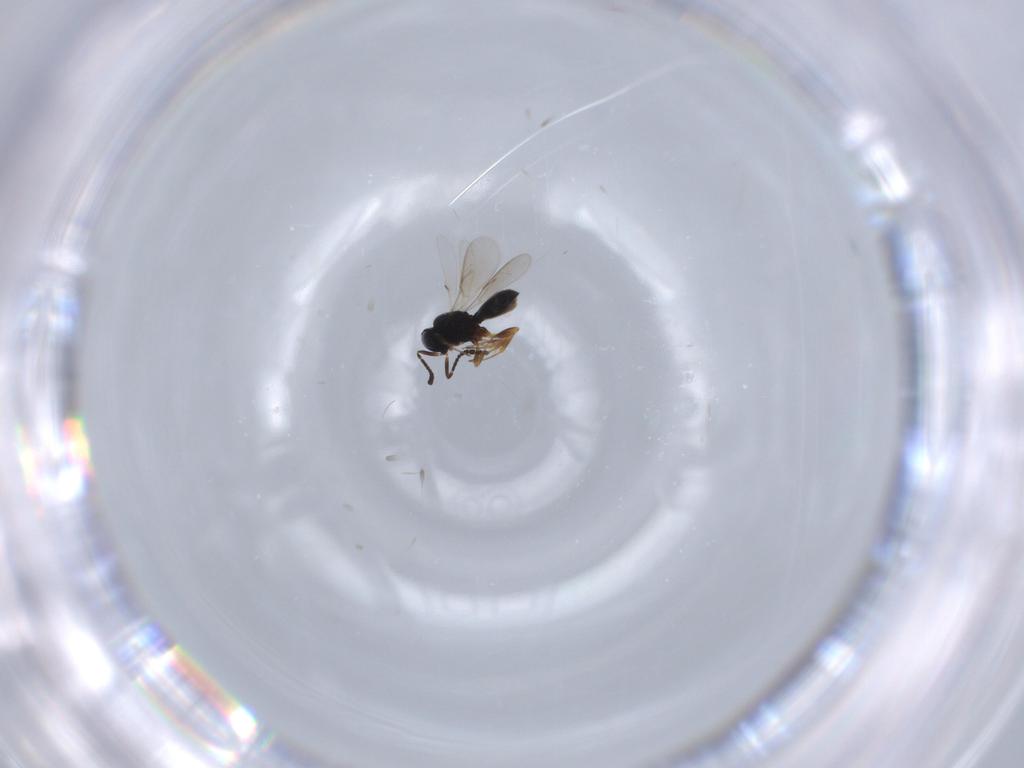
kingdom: Animalia
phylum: Arthropoda
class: Insecta
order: Hymenoptera
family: Scelionidae
